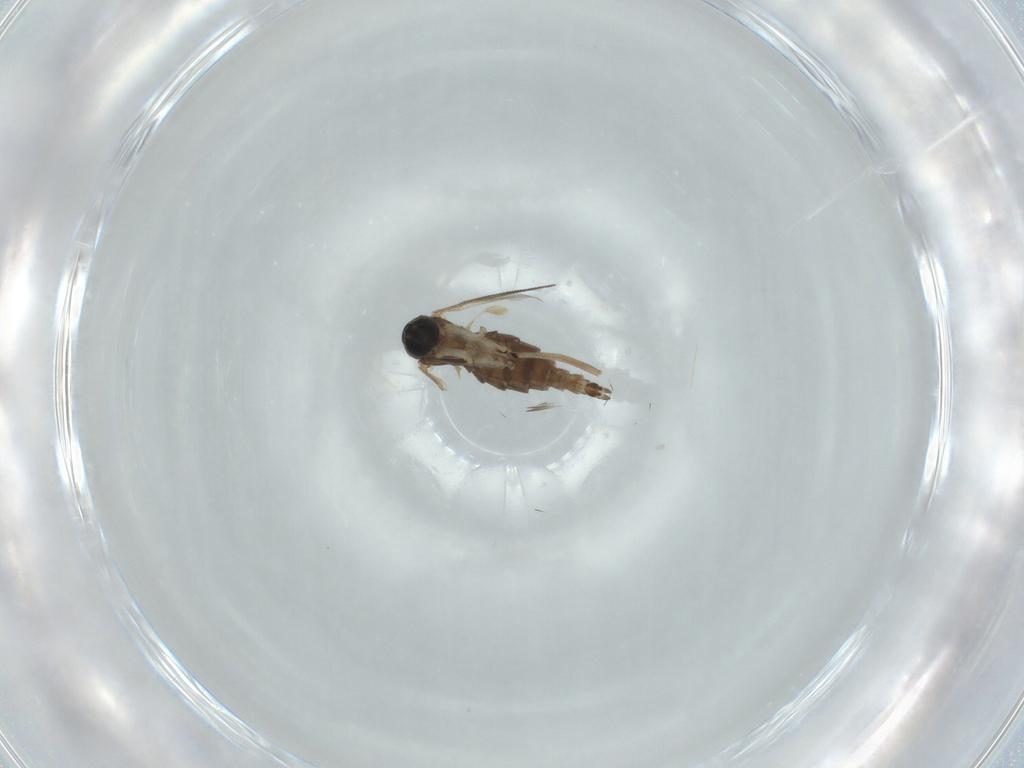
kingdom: Animalia
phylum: Arthropoda
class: Insecta
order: Diptera
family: Sciaridae
